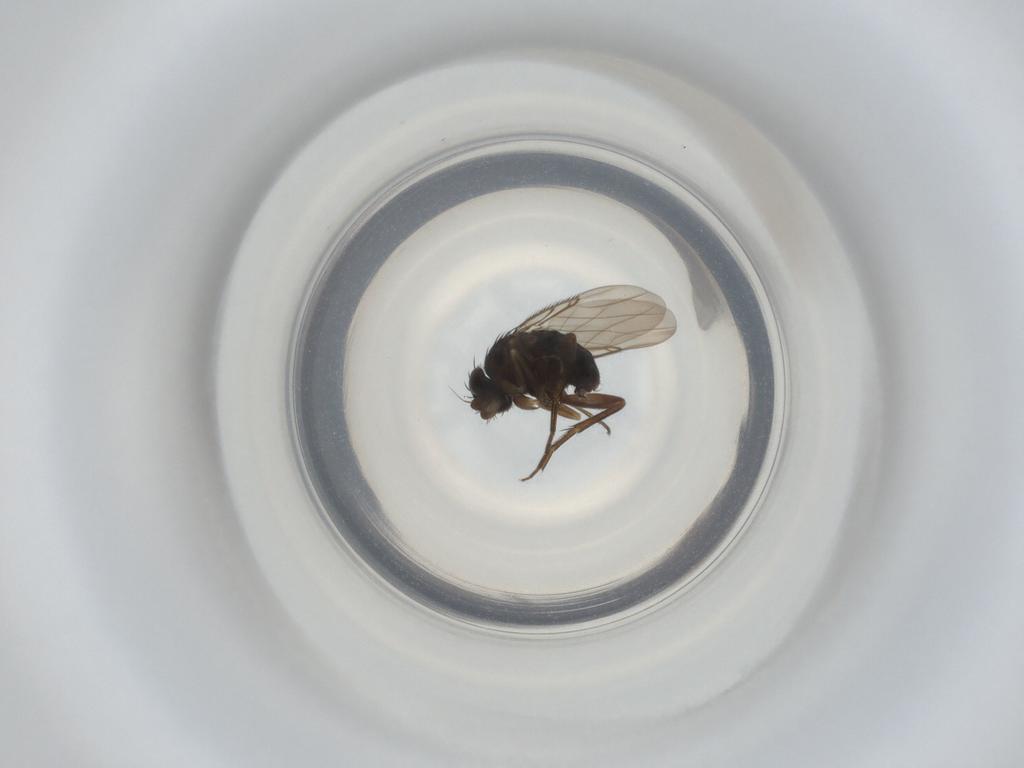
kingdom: Animalia
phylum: Arthropoda
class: Insecta
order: Diptera
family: Phoridae
